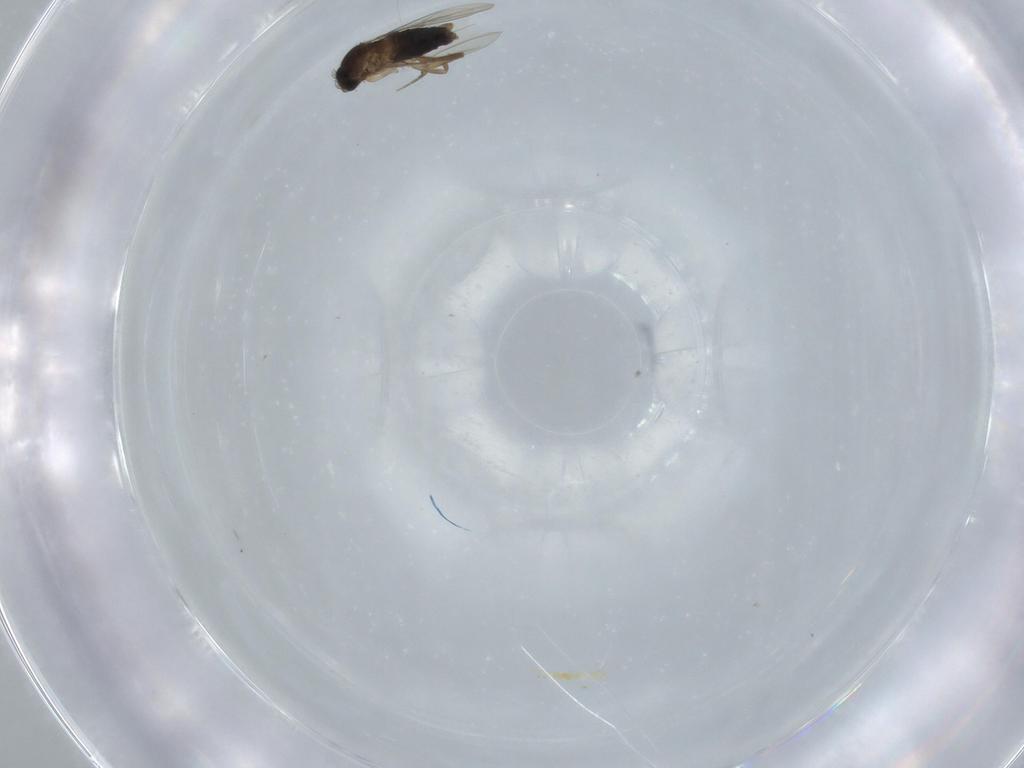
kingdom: Animalia
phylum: Arthropoda
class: Insecta
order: Diptera
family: Phoridae
